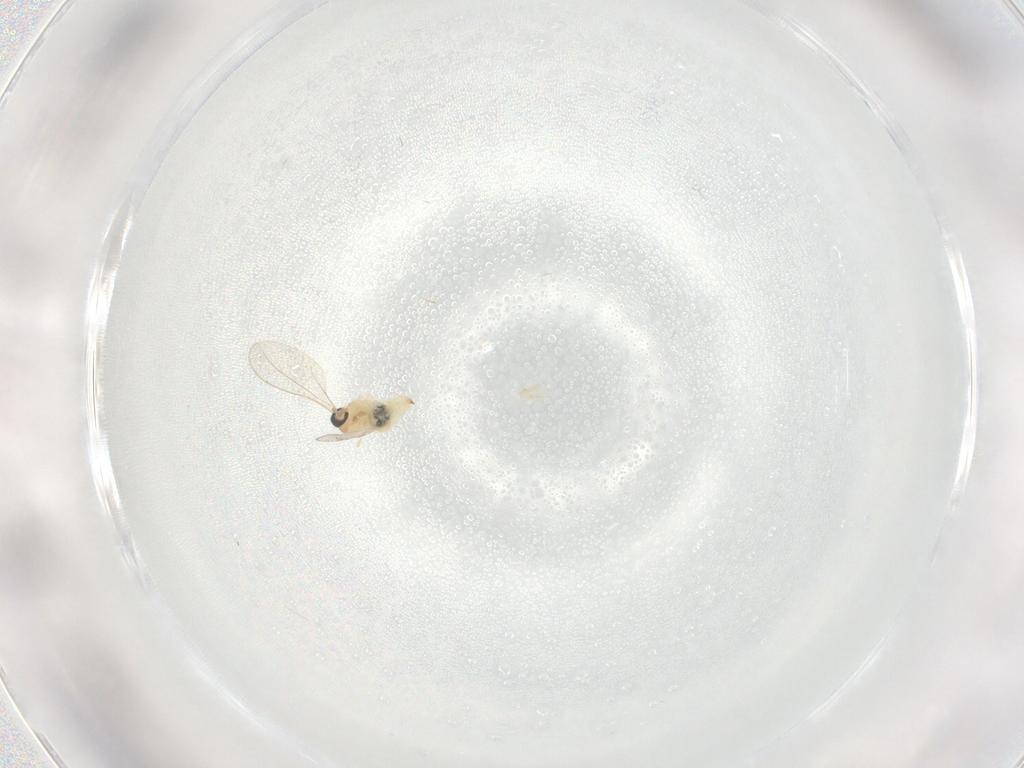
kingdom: Animalia
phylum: Arthropoda
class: Insecta
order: Diptera
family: Cecidomyiidae
